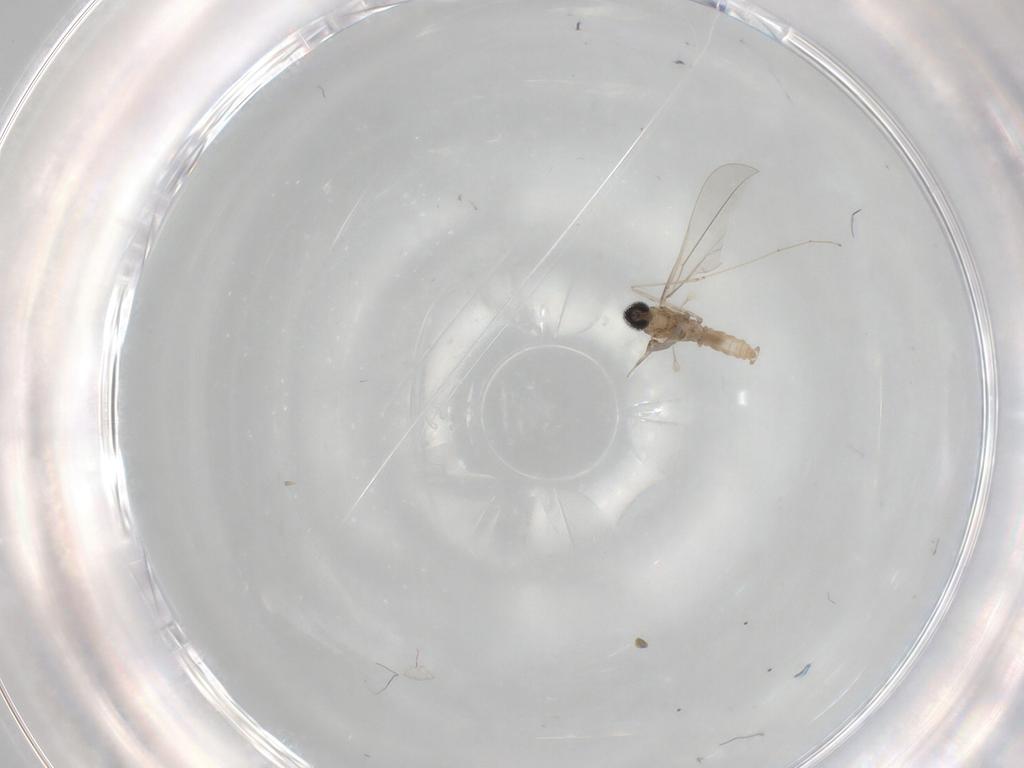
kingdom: Animalia
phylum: Arthropoda
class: Insecta
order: Diptera
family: Cecidomyiidae
